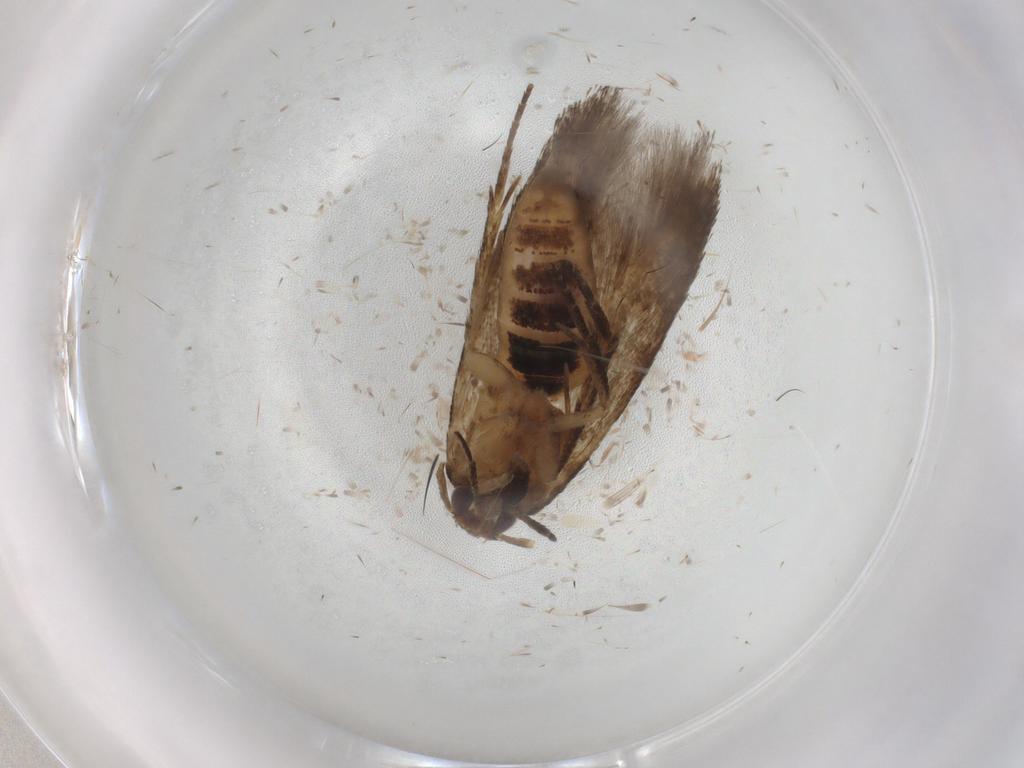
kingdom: Animalia
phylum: Arthropoda
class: Insecta
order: Lepidoptera
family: Cosmopterigidae
